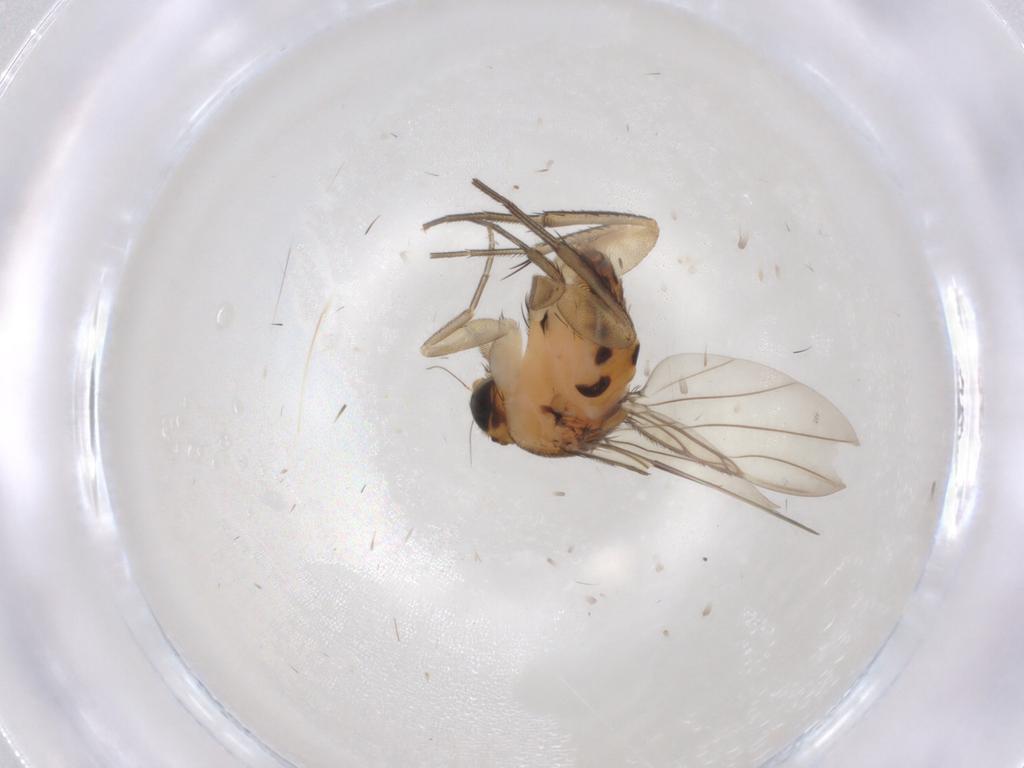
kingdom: Animalia
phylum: Arthropoda
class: Insecta
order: Diptera
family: Phoridae
